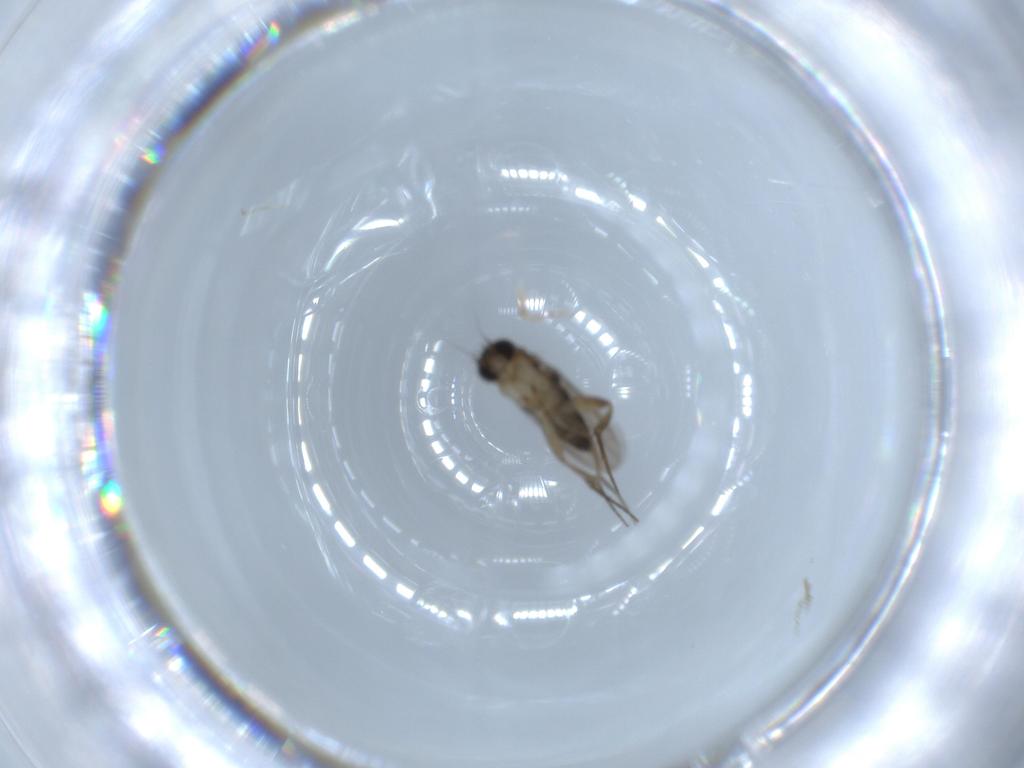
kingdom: Animalia
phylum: Arthropoda
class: Insecta
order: Diptera
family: Phoridae
